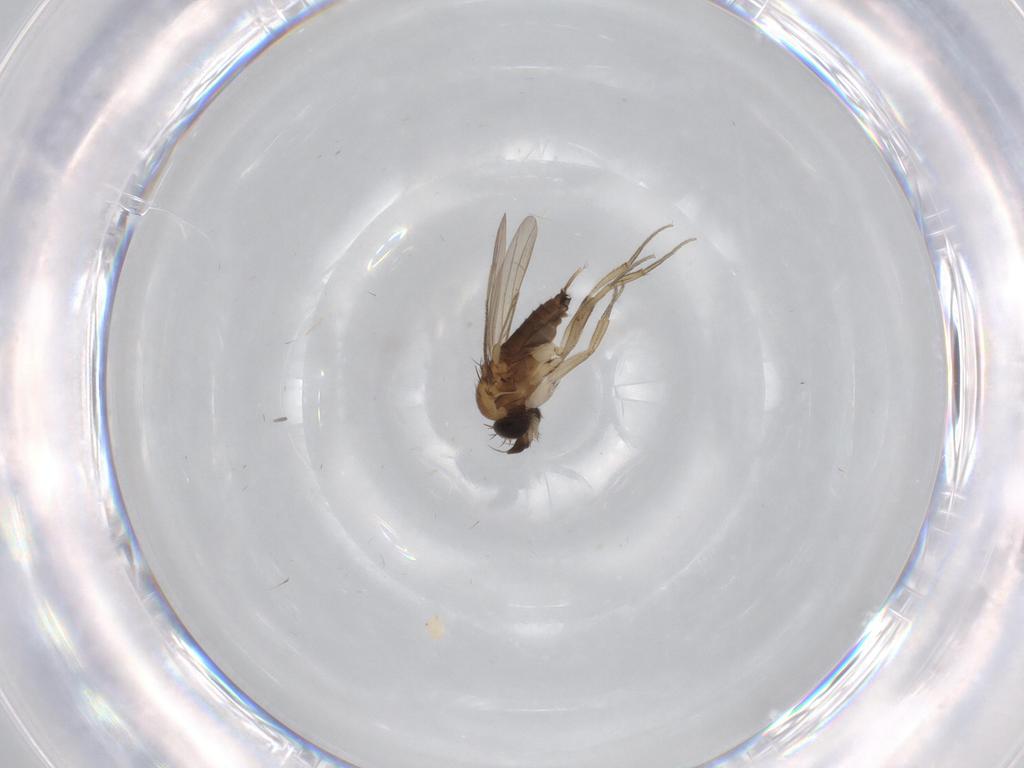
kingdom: Animalia
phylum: Arthropoda
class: Insecta
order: Diptera
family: Phoridae
